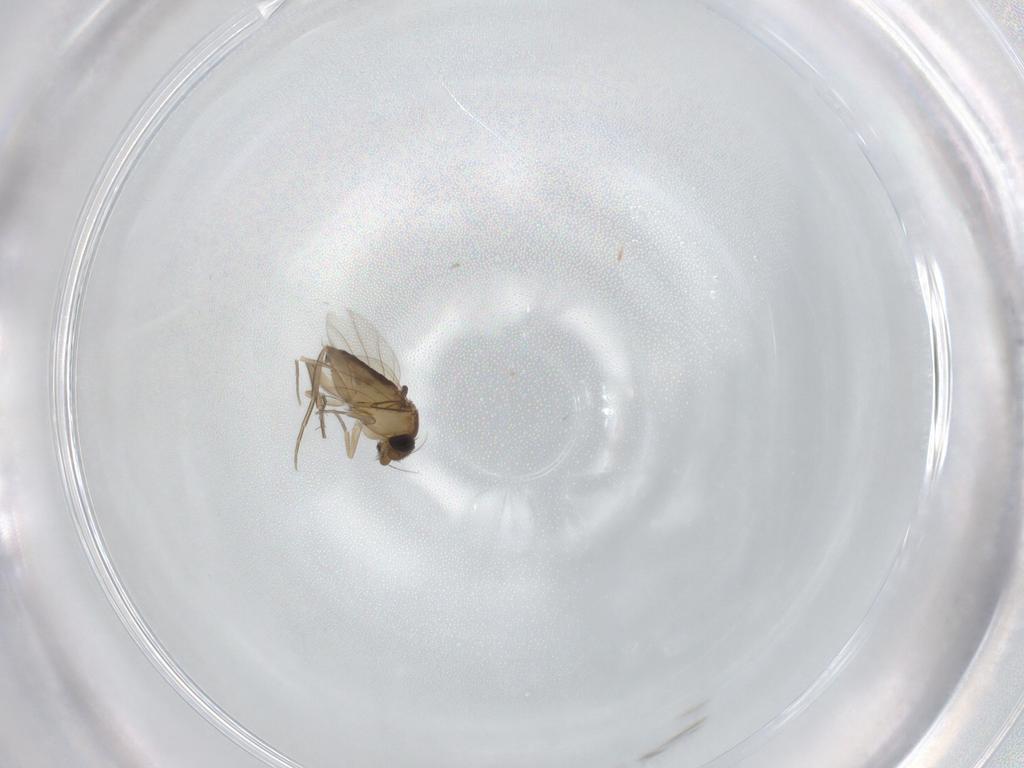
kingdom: Animalia
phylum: Arthropoda
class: Insecta
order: Diptera
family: Phoridae
